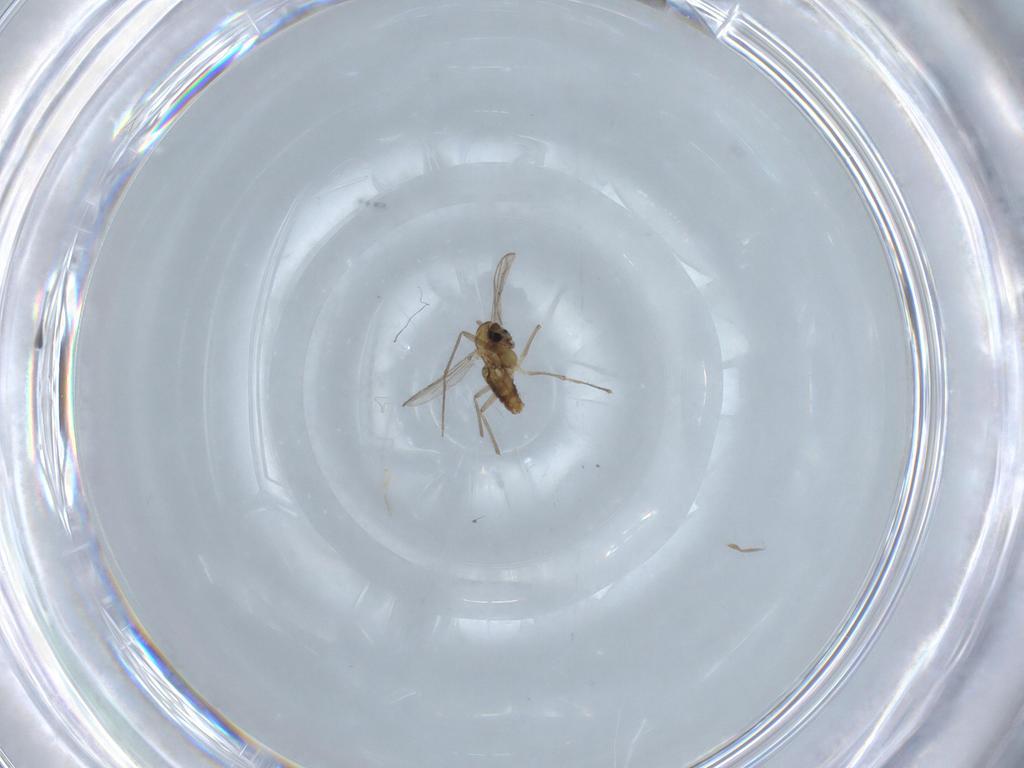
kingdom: Animalia
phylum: Arthropoda
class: Insecta
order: Diptera
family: Chironomidae
